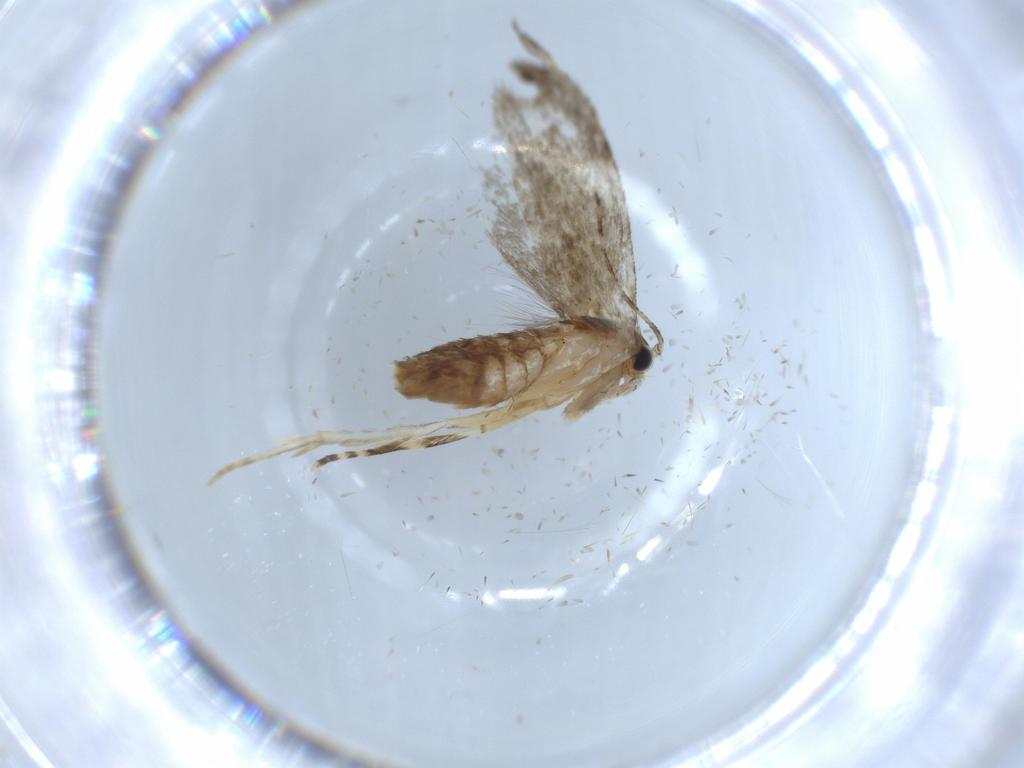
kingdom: Animalia
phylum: Arthropoda
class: Insecta
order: Lepidoptera
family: Tineidae
